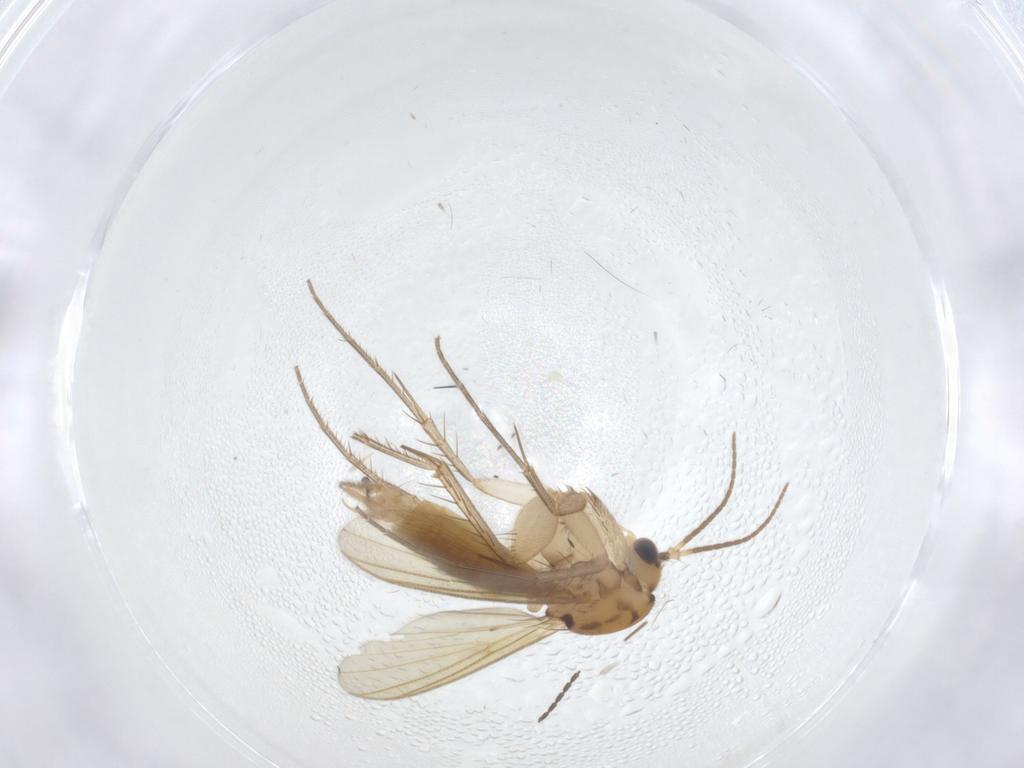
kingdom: Animalia
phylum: Arthropoda
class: Insecta
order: Diptera
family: Mycetophilidae
